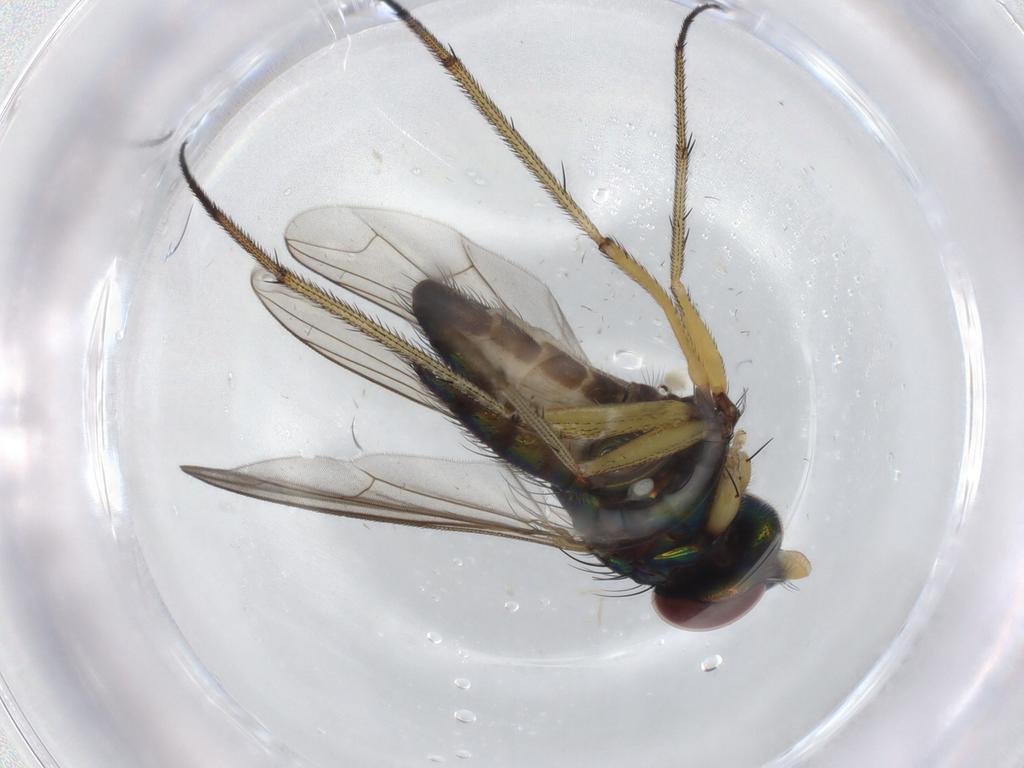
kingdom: Animalia
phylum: Arthropoda
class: Insecta
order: Diptera
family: Dolichopodidae
